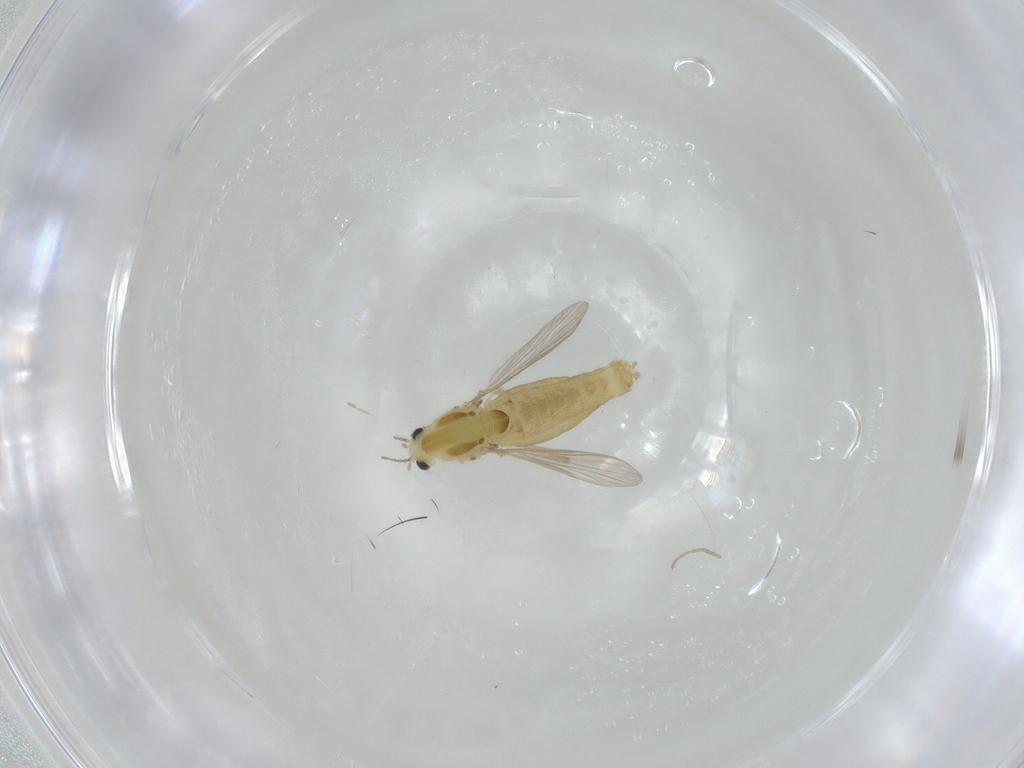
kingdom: Animalia
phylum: Arthropoda
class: Insecta
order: Diptera
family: Chironomidae
